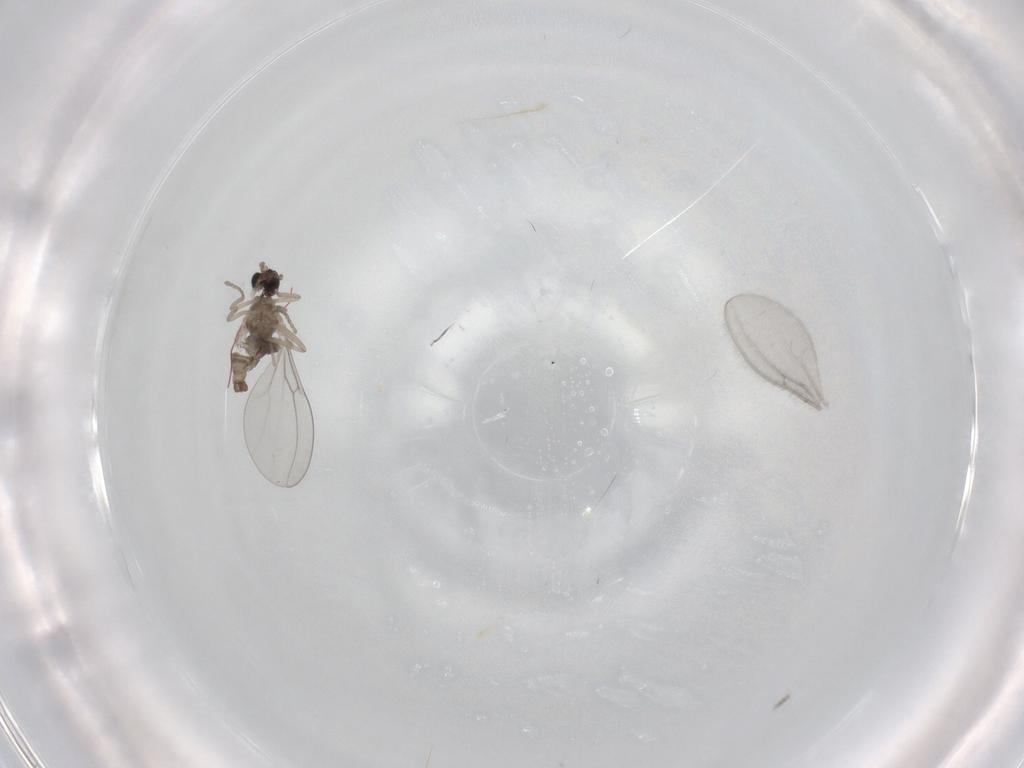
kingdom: Animalia
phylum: Arthropoda
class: Insecta
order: Diptera
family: Cecidomyiidae
